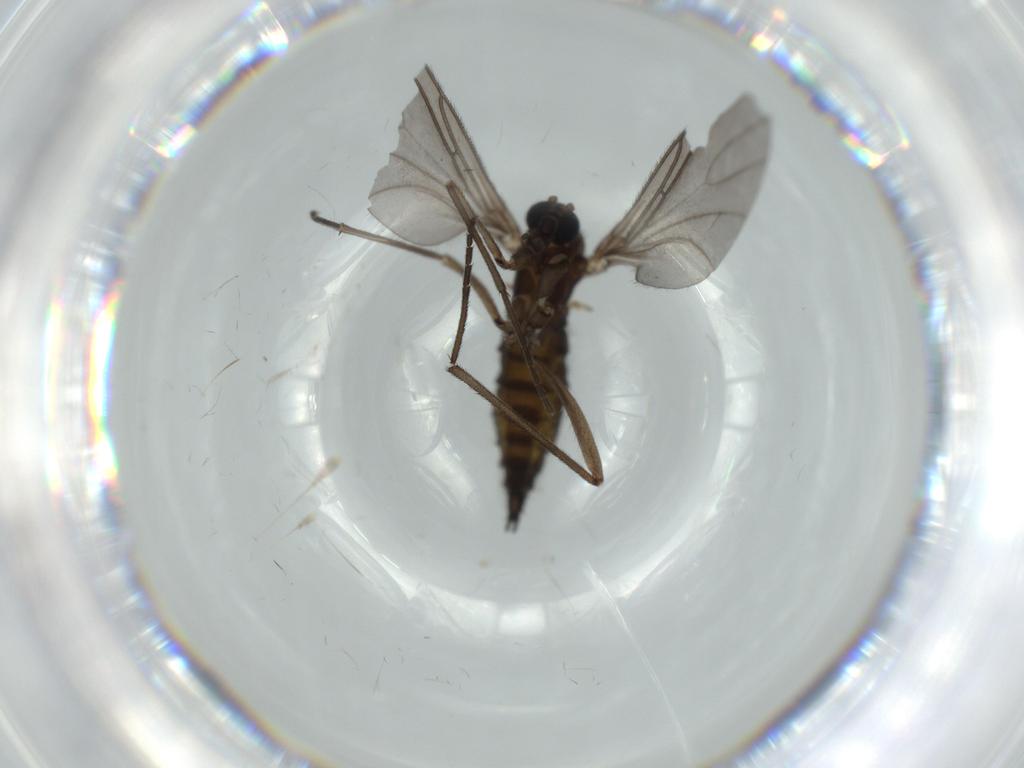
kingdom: Animalia
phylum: Arthropoda
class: Insecta
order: Diptera
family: Sciaridae
